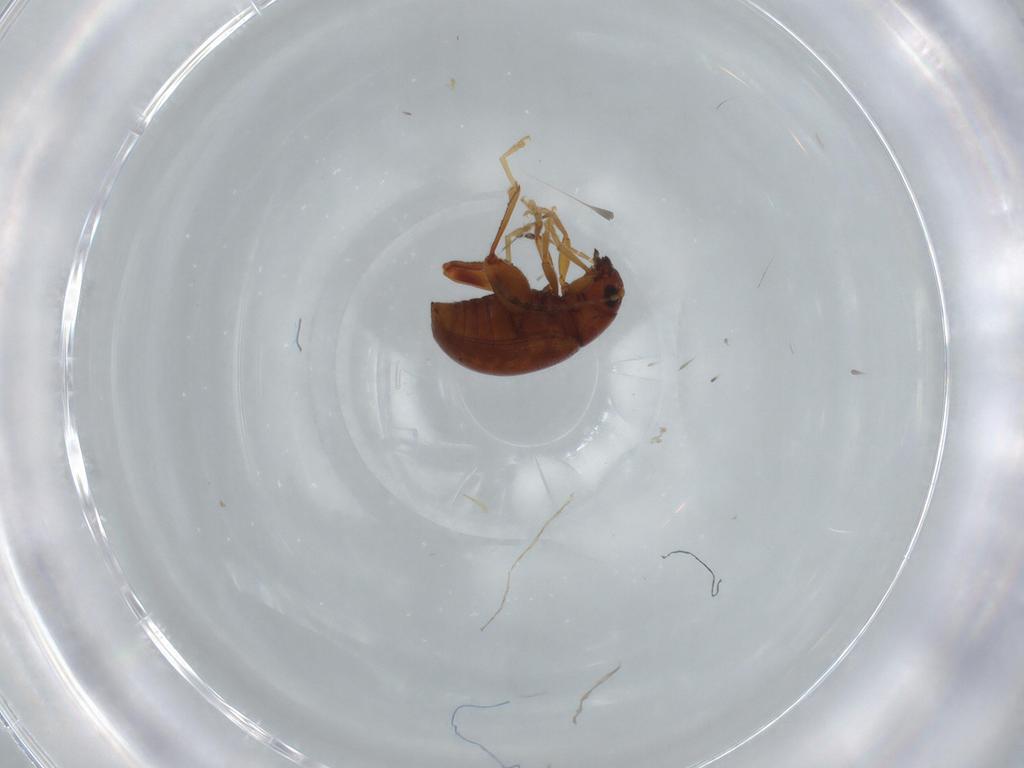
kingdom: Animalia
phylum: Arthropoda
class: Insecta
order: Coleoptera
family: Chrysomelidae
